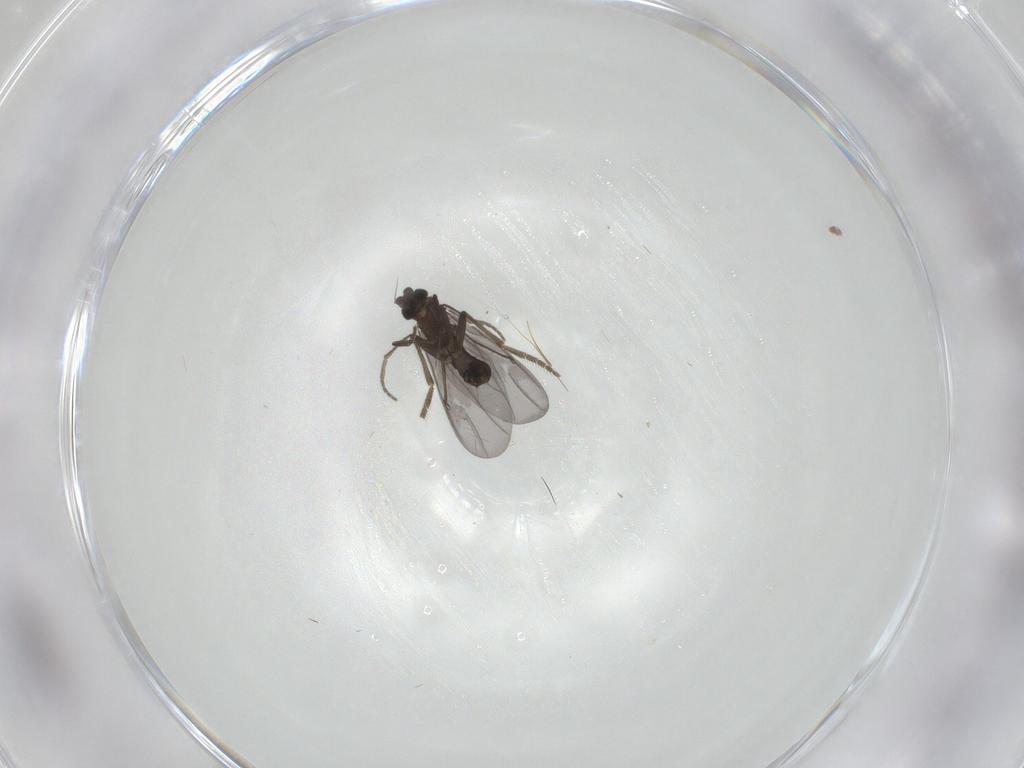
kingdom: Animalia
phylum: Arthropoda
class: Insecta
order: Diptera
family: Phoridae
